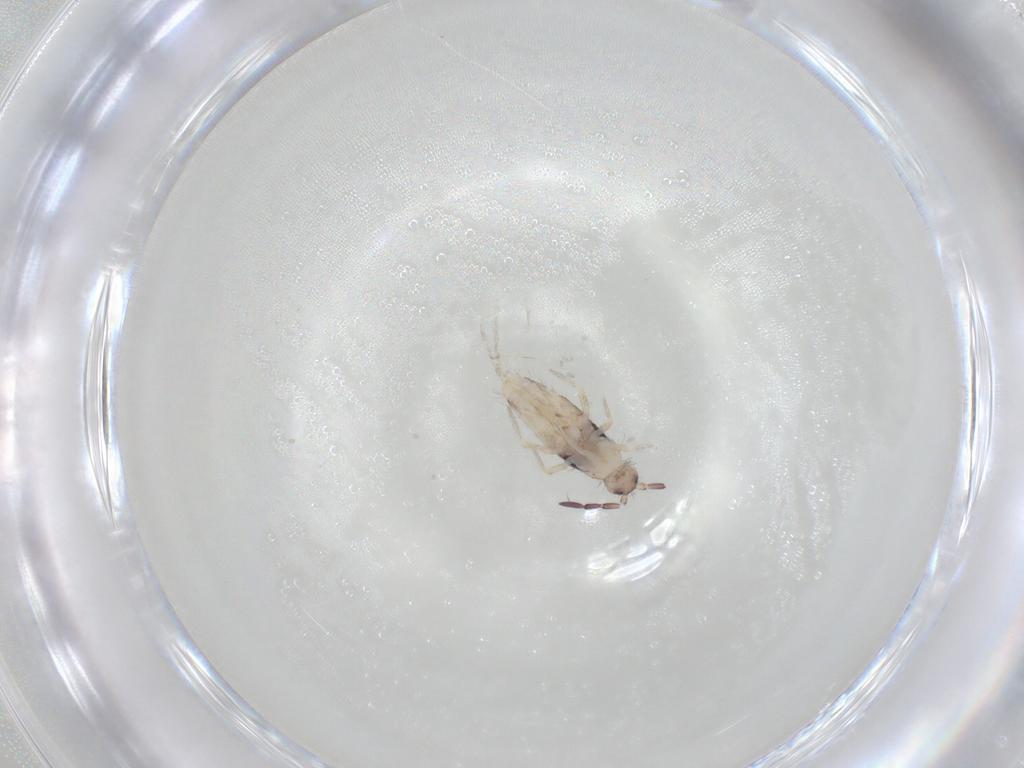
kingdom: Animalia
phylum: Arthropoda
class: Collembola
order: Entomobryomorpha
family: Entomobryidae
